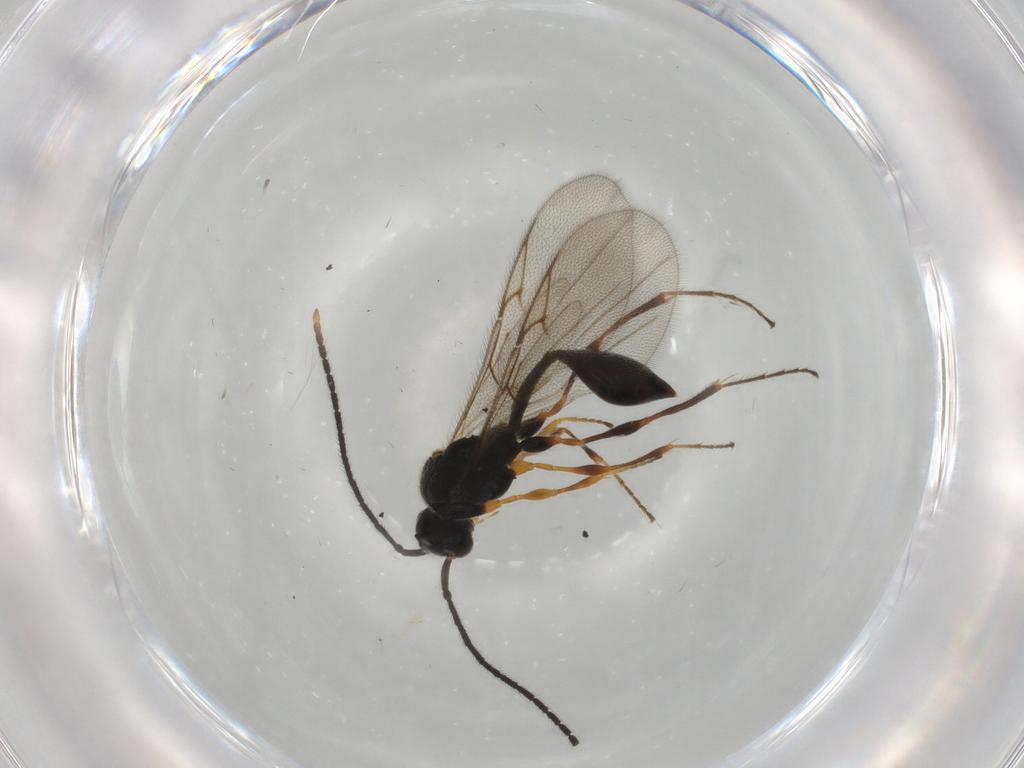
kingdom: Animalia
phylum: Arthropoda
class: Insecta
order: Hymenoptera
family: Diapriidae
